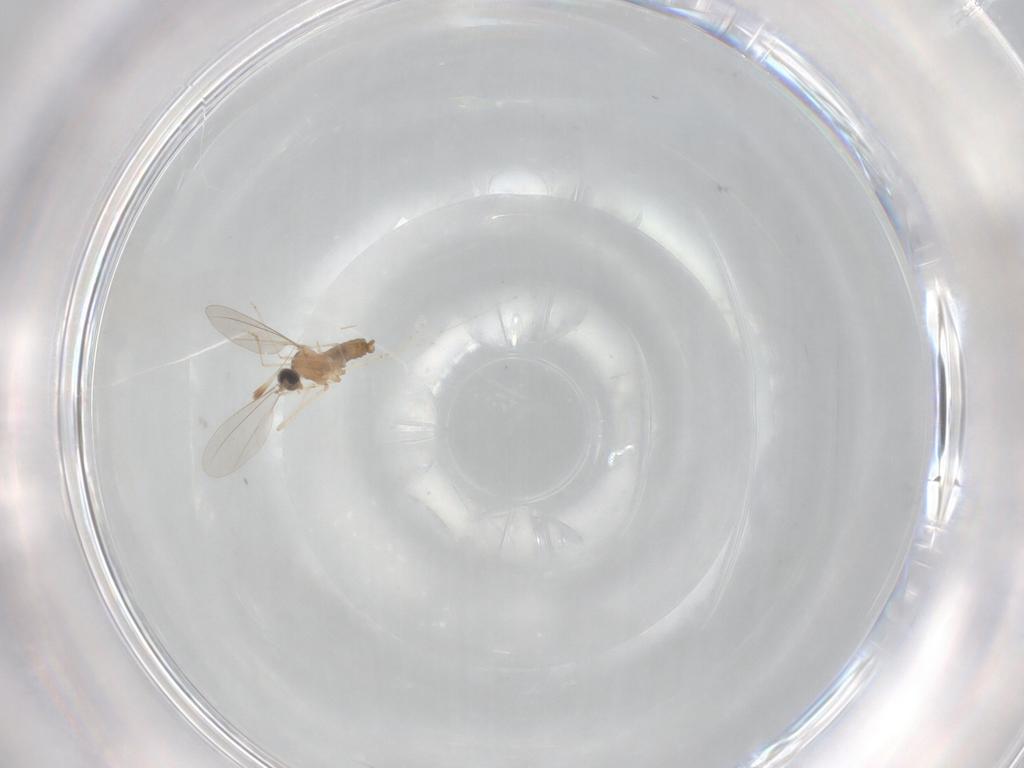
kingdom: Animalia
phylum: Arthropoda
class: Insecta
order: Diptera
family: Cecidomyiidae
